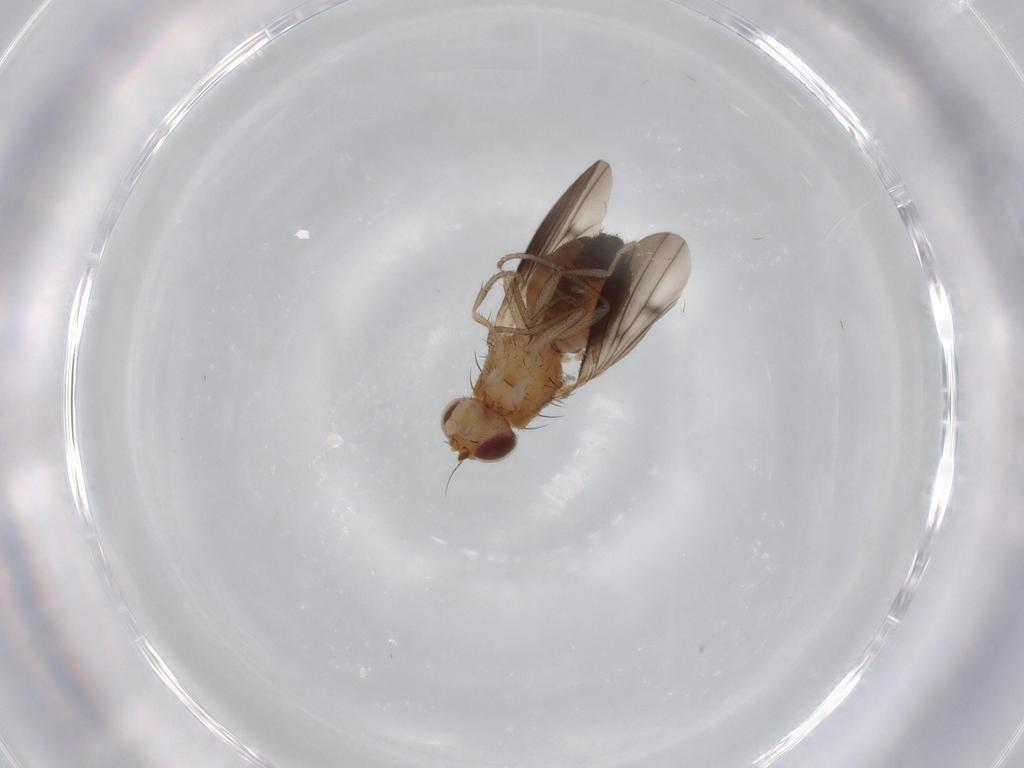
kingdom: Animalia
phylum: Arthropoda
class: Insecta
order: Diptera
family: Heleomyzidae
